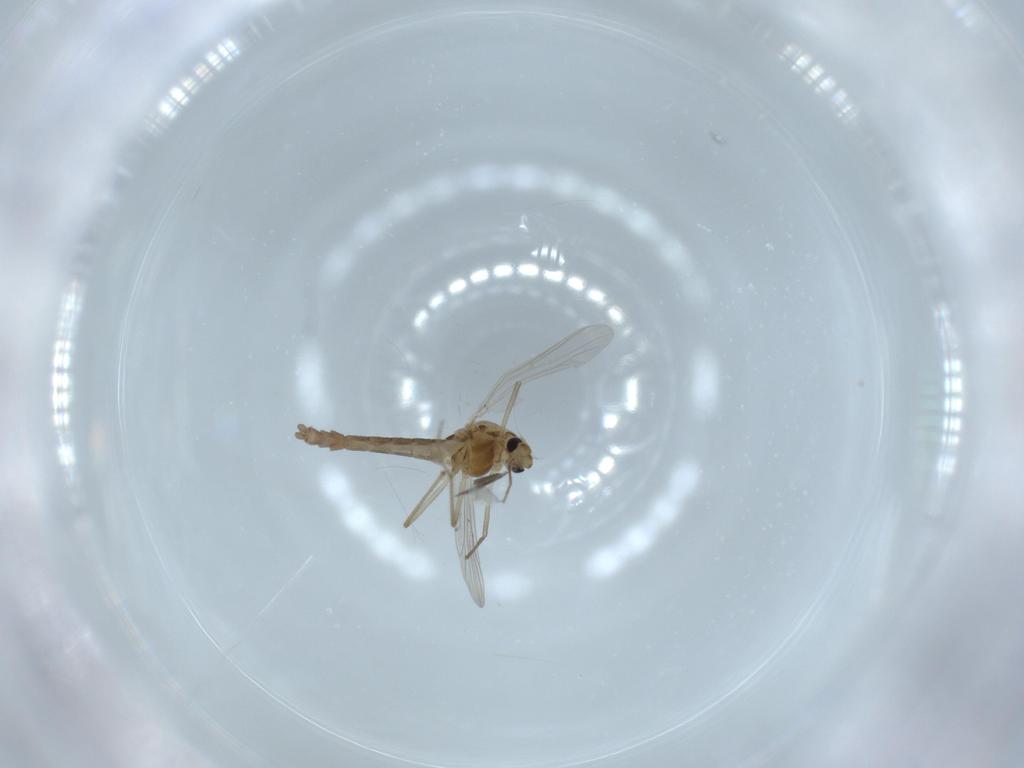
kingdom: Animalia
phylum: Arthropoda
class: Insecta
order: Diptera
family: Chironomidae
